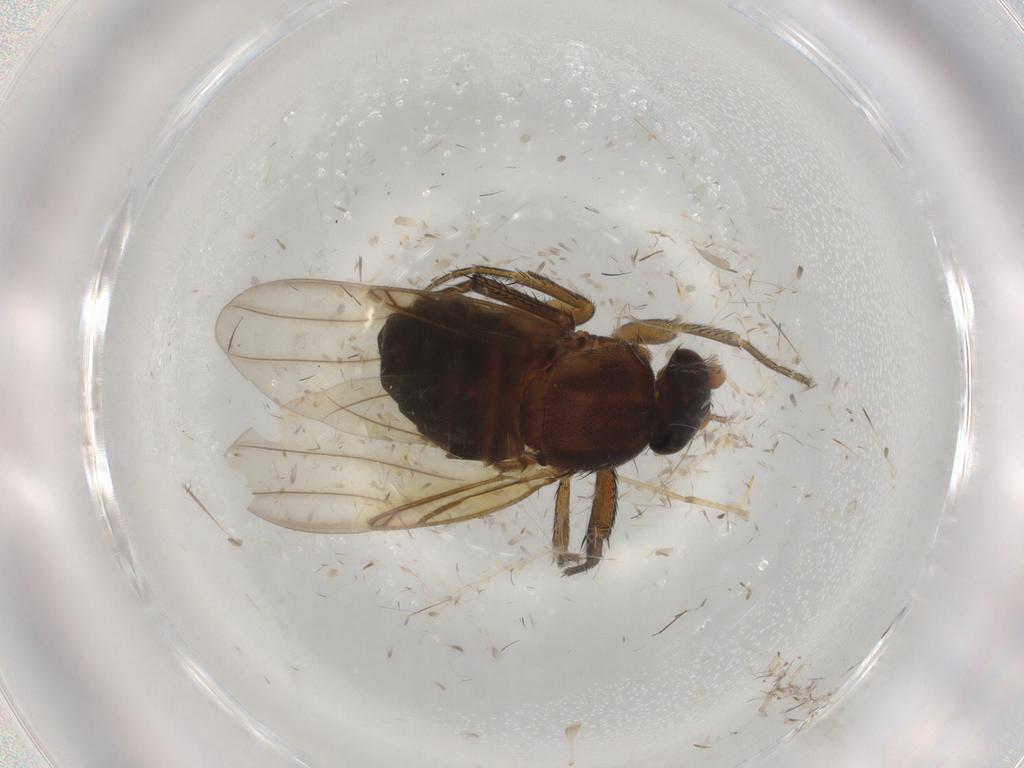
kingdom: Animalia
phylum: Arthropoda
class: Insecta
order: Diptera
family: Phoridae
